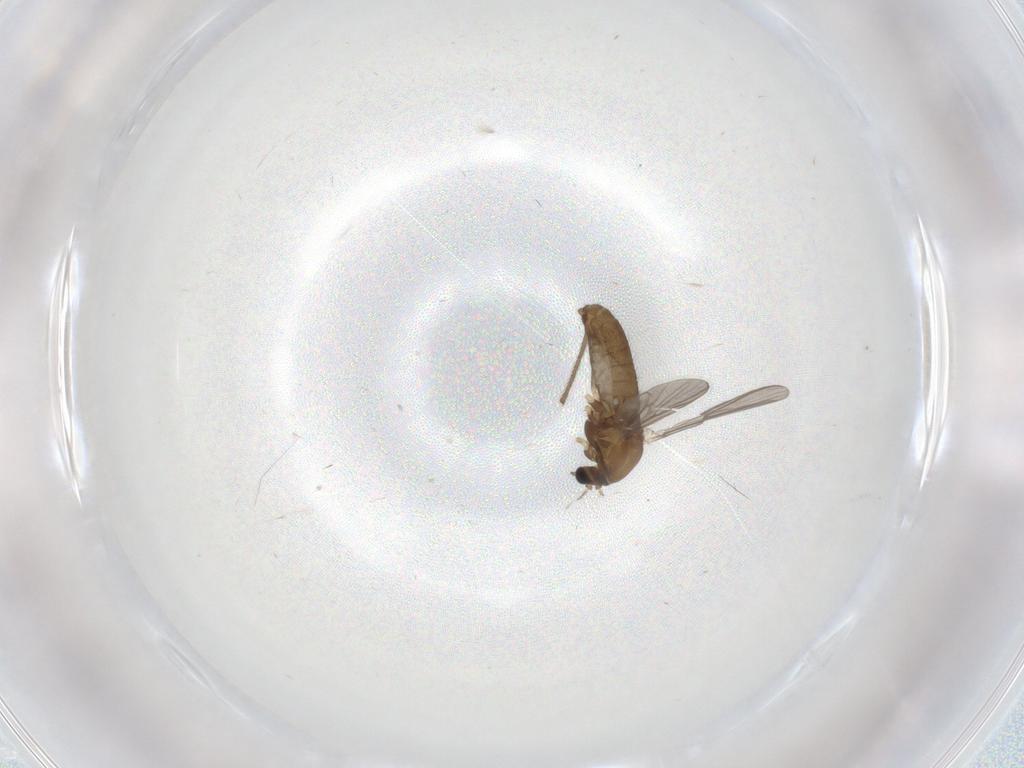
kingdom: Animalia
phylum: Arthropoda
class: Insecta
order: Diptera
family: Chironomidae
